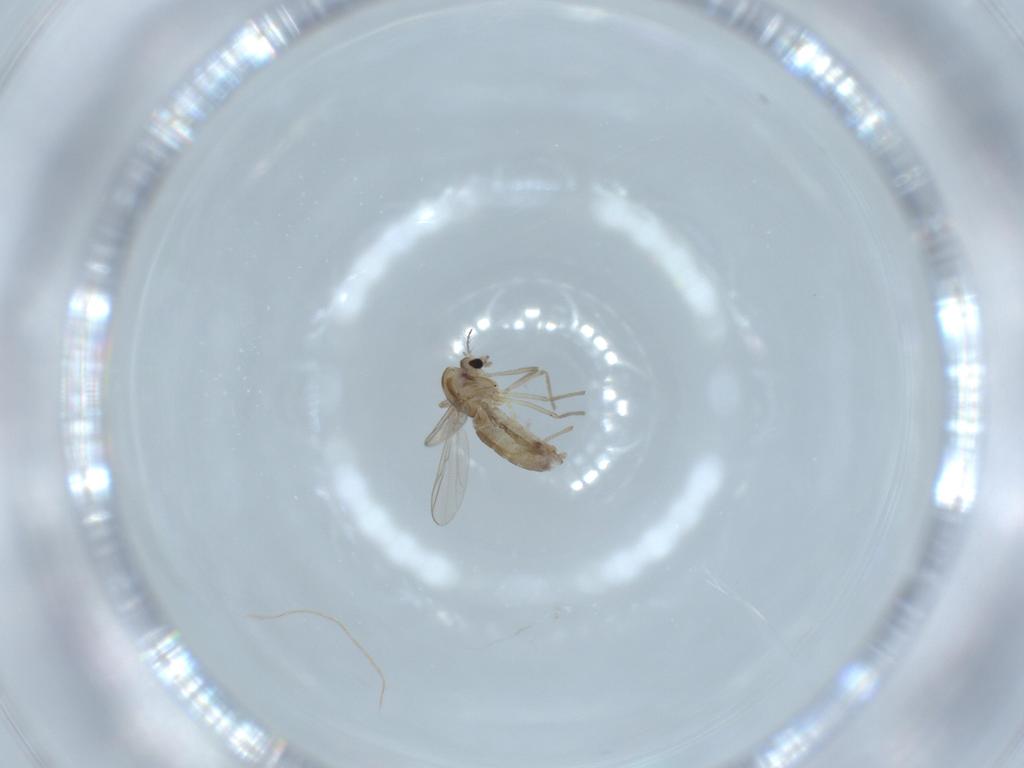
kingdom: Animalia
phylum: Arthropoda
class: Insecta
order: Diptera
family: Chironomidae
